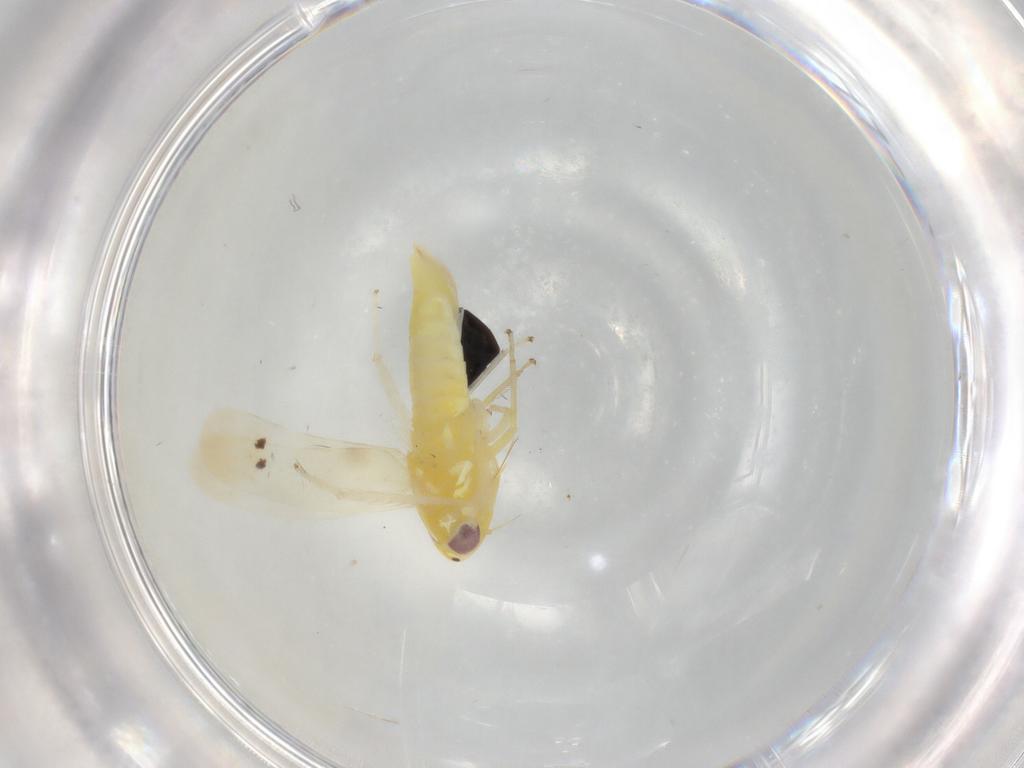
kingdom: Animalia
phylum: Arthropoda
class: Insecta
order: Hemiptera
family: Cicadellidae
